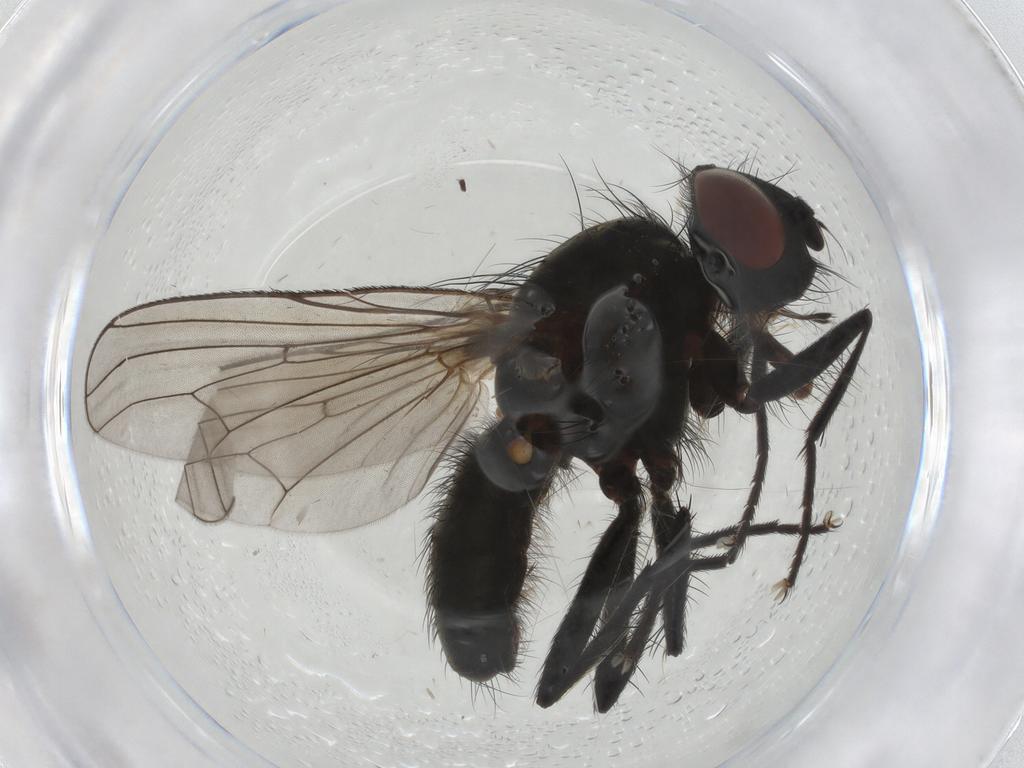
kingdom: Animalia
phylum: Arthropoda
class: Insecta
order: Diptera
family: Sciaridae
